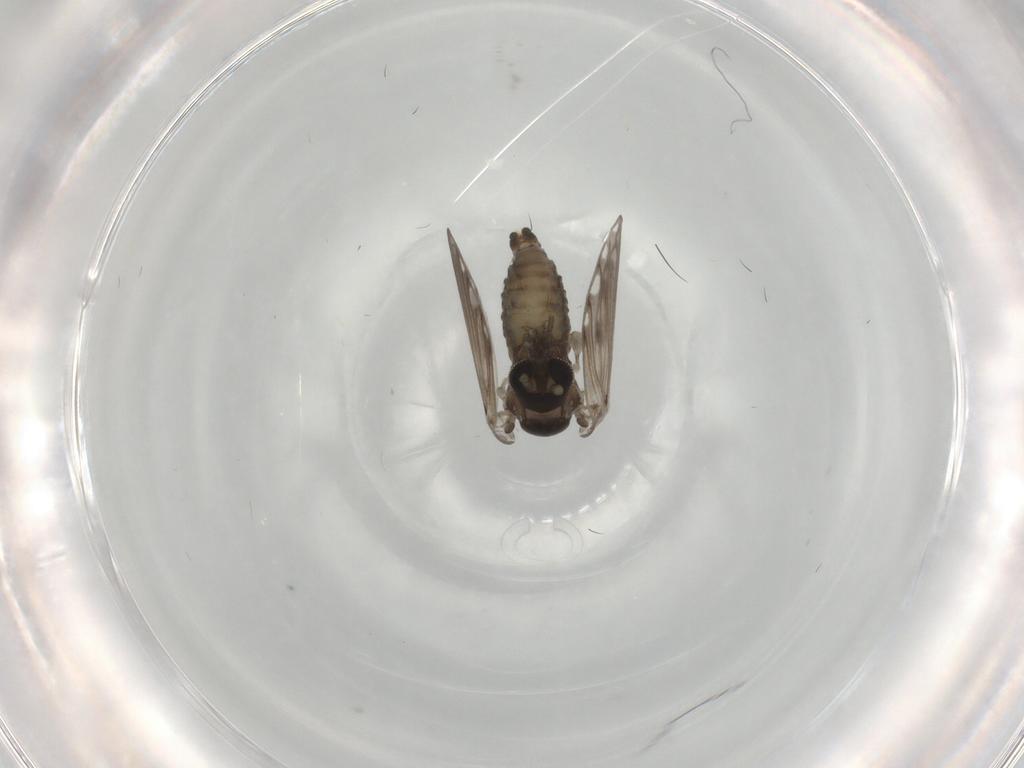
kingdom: Animalia
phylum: Arthropoda
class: Insecta
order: Diptera
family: Psychodidae
